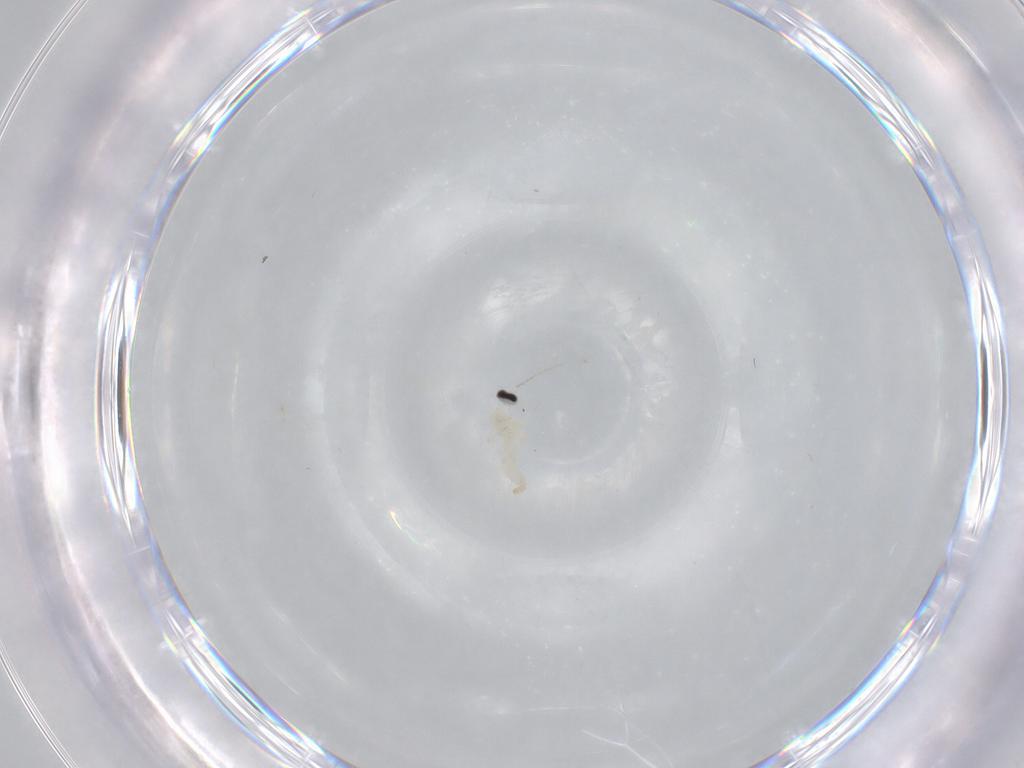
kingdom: Animalia
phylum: Arthropoda
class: Insecta
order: Diptera
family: Cecidomyiidae
